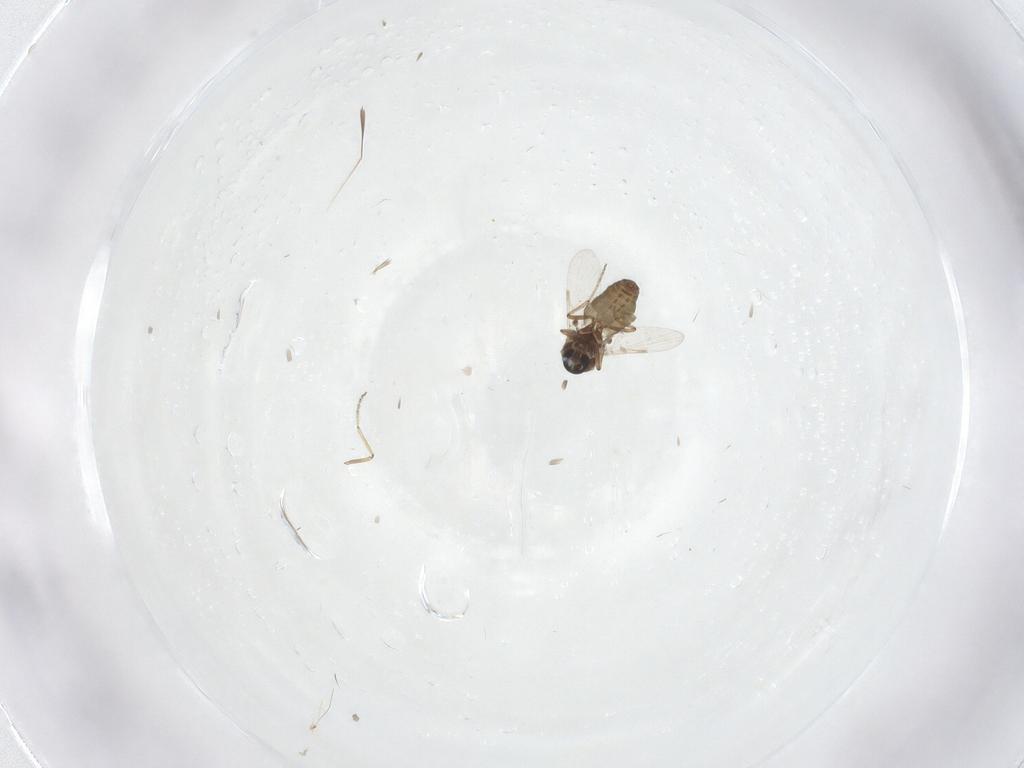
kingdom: Animalia
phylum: Arthropoda
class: Insecta
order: Diptera
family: Ceratopogonidae
